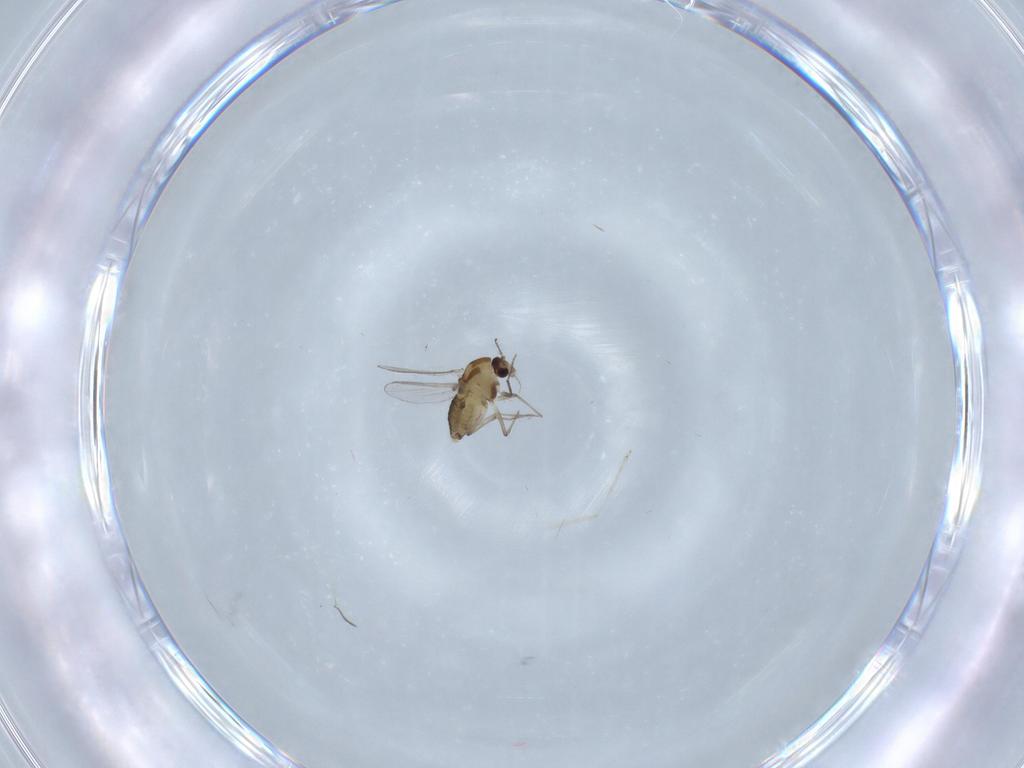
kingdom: Animalia
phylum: Arthropoda
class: Insecta
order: Diptera
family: Chironomidae
